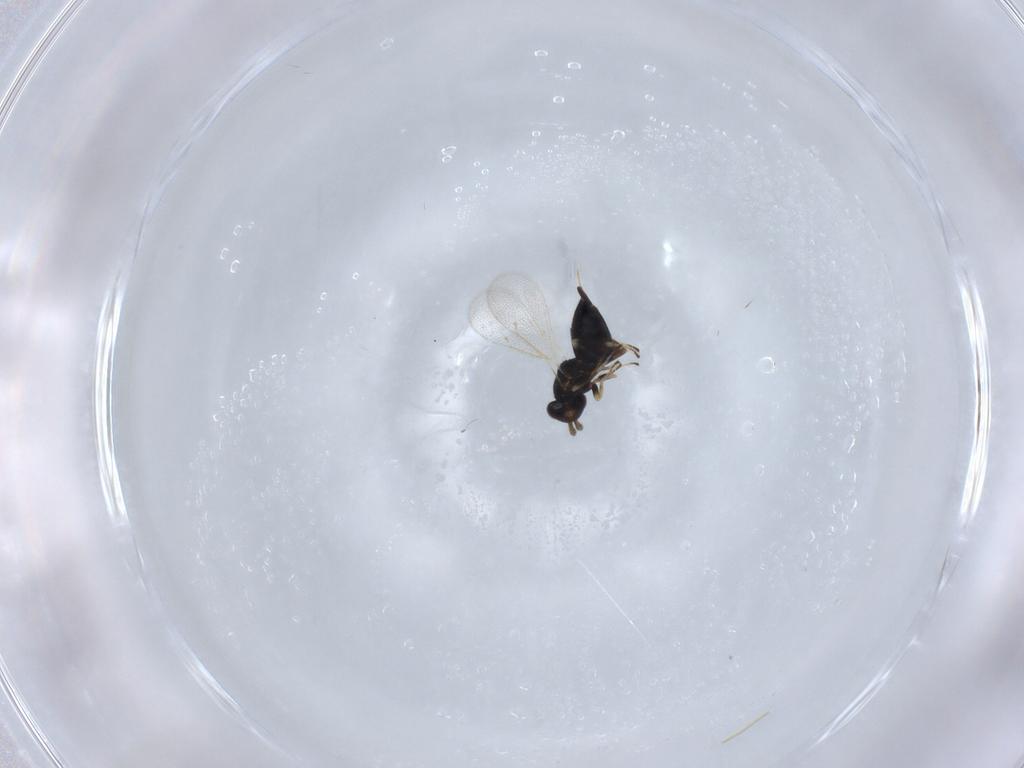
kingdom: Animalia
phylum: Arthropoda
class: Insecta
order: Hymenoptera
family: Eulophidae
